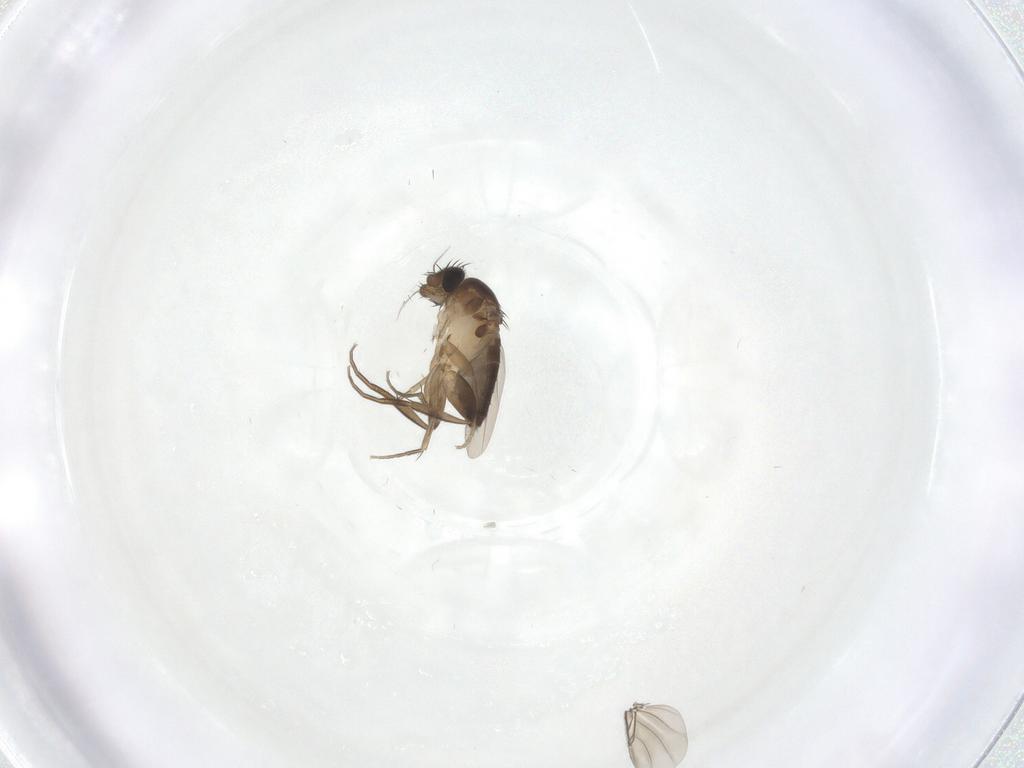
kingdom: Animalia
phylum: Arthropoda
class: Insecta
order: Diptera
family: Phoridae
